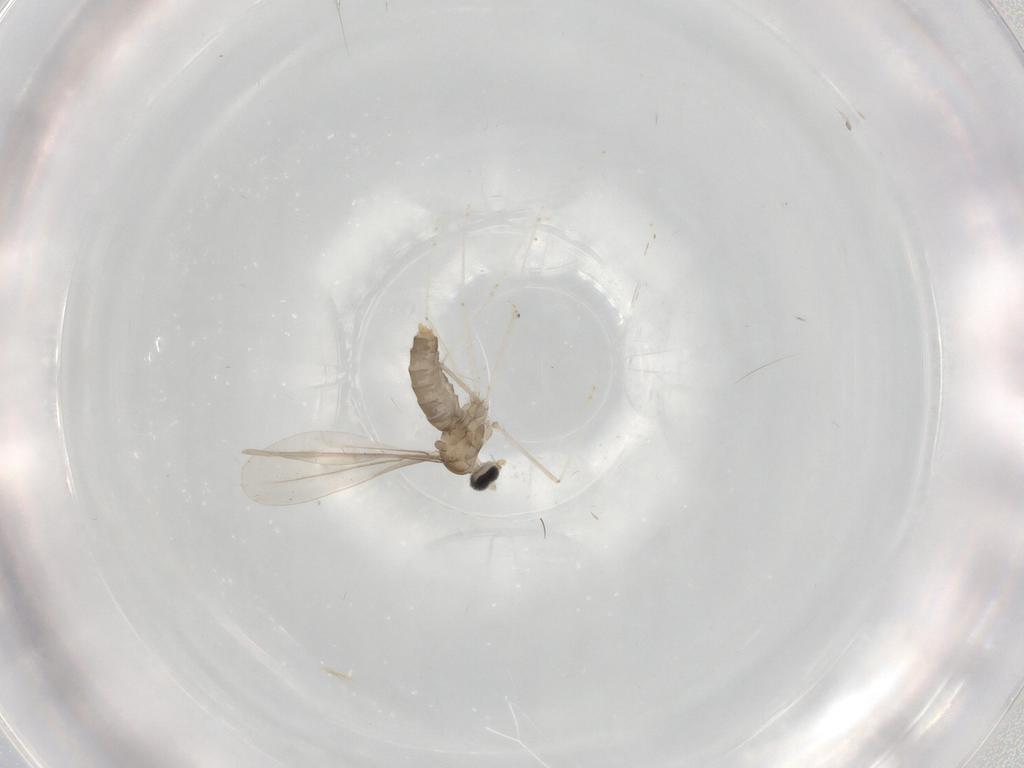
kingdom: Animalia
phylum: Arthropoda
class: Insecta
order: Diptera
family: Cecidomyiidae
